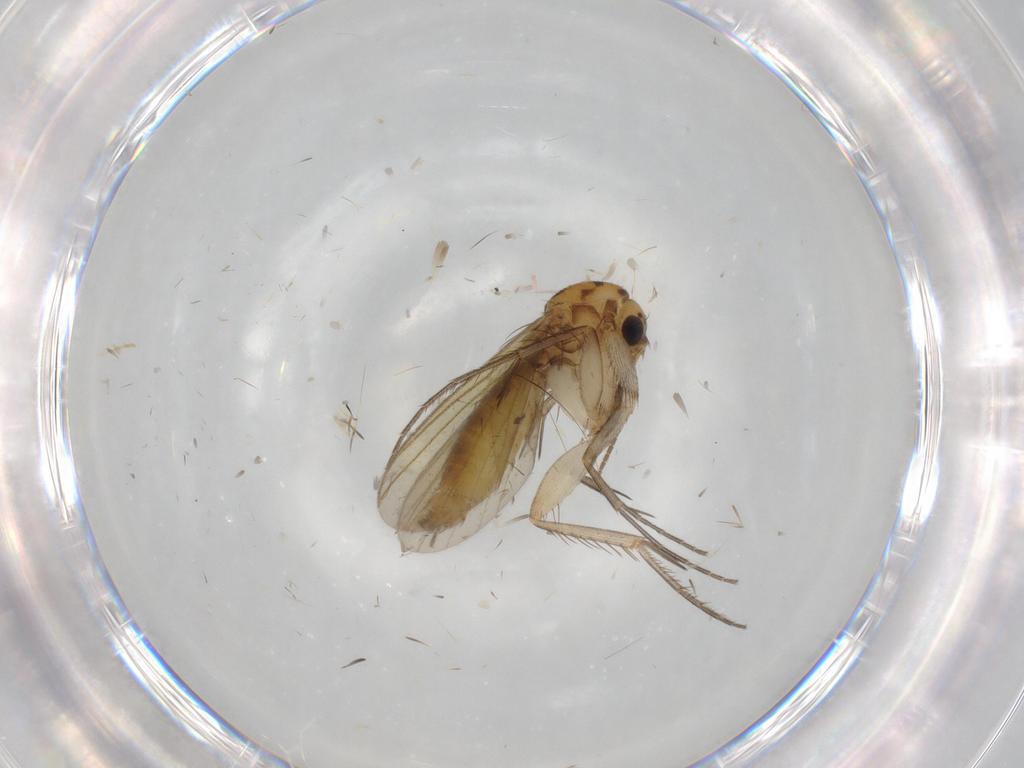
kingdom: Animalia
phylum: Arthropoda
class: Insecta
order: Diptera
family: Mycetophilidae
